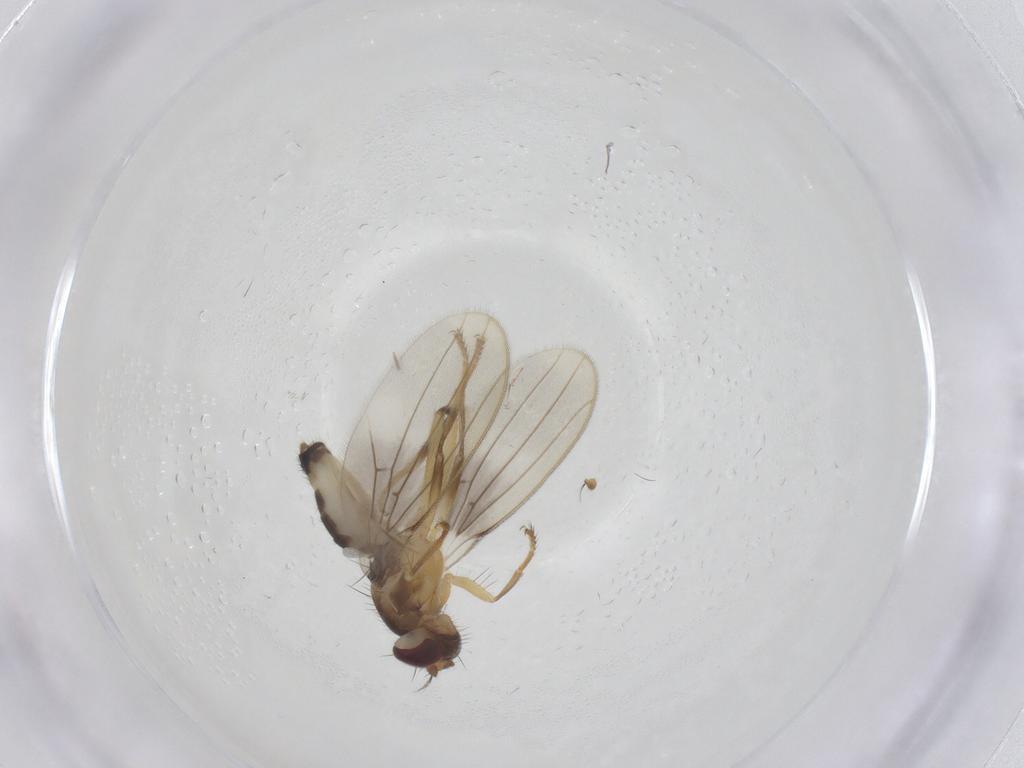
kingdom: Animalia
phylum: Arthropoda
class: Insecta
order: Diptera
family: Periscelididae
